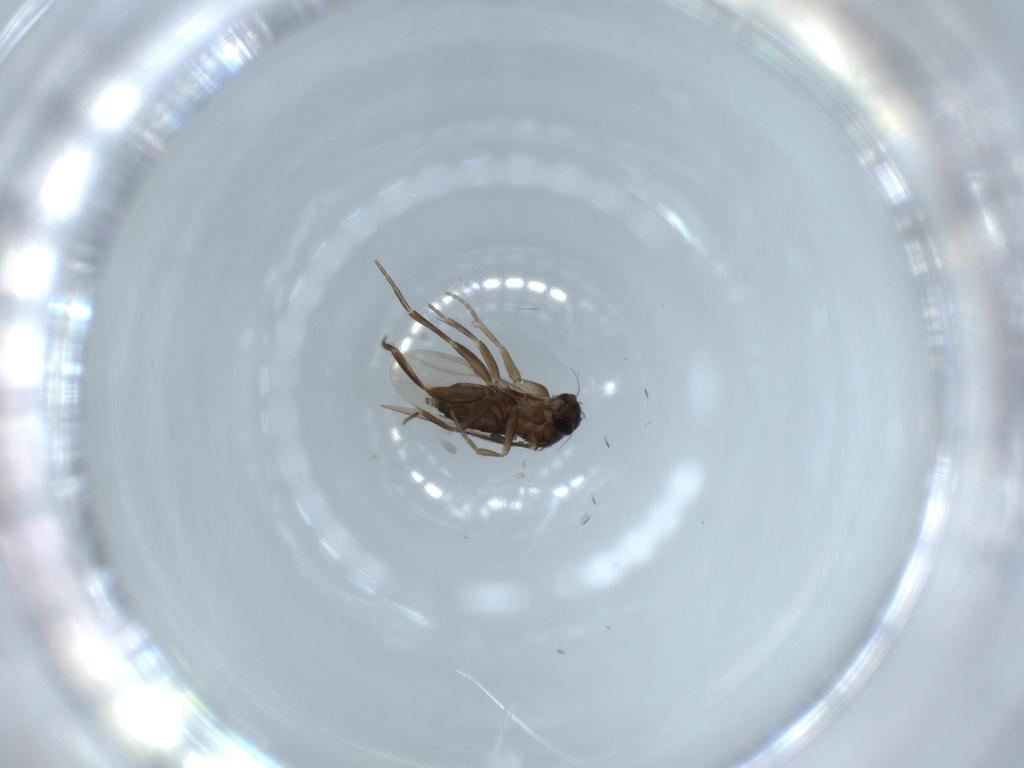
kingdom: Animalia
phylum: Arthropoda
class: Insecta
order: Diptera
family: Phoridae
